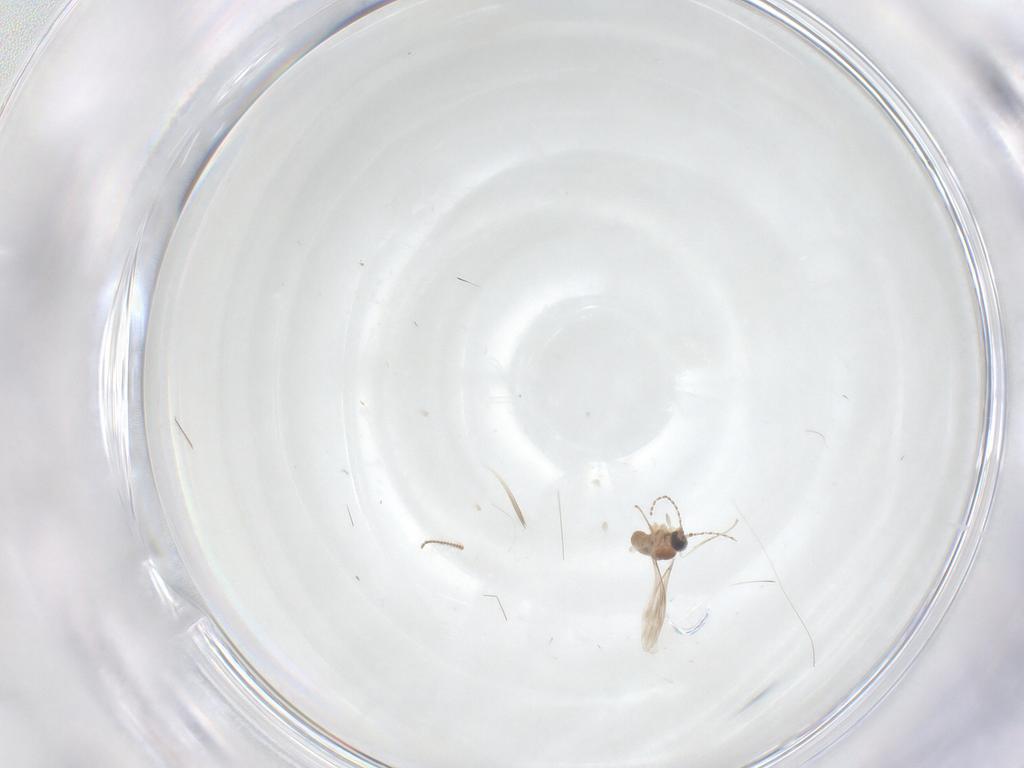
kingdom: Animalia
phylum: Arthropoda
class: Insecta
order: Diptera
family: Cecidomyiidae
